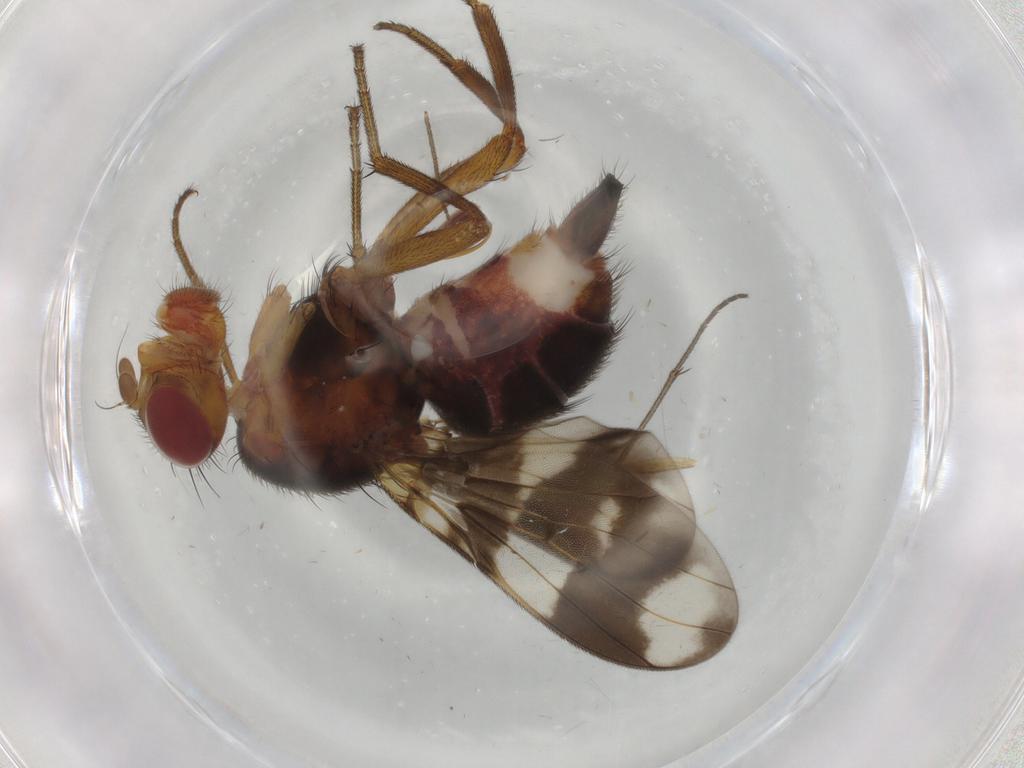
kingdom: Animalia
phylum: Arthropoda
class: Insecta
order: Diptera
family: Richardiidae
